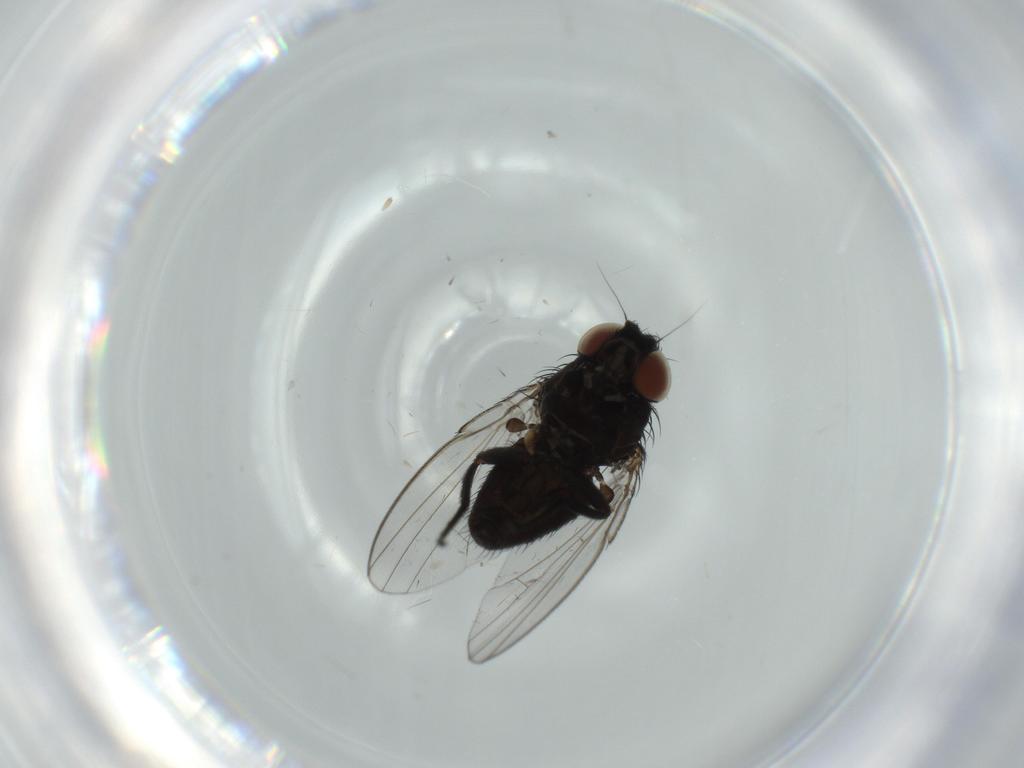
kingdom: Animalia
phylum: Arthropoda
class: Insecta
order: Diptera
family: Milichiidae
